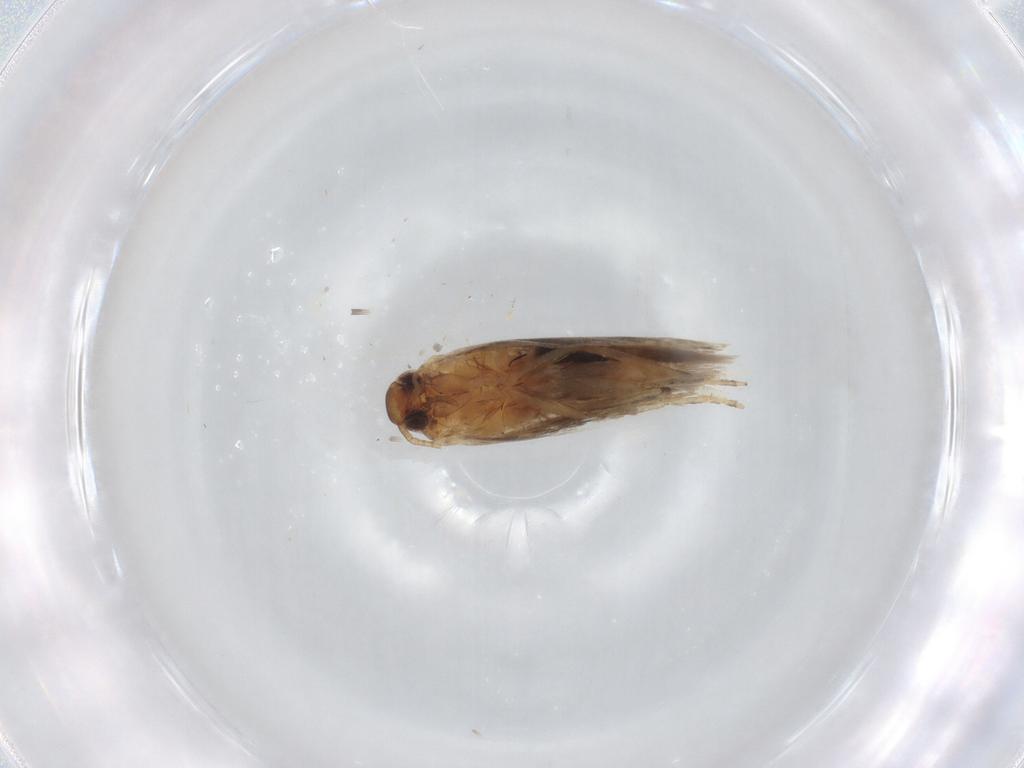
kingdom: Animalia
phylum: Arthropoda
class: Insecta
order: Lepidoptera
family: Gelechiidae
